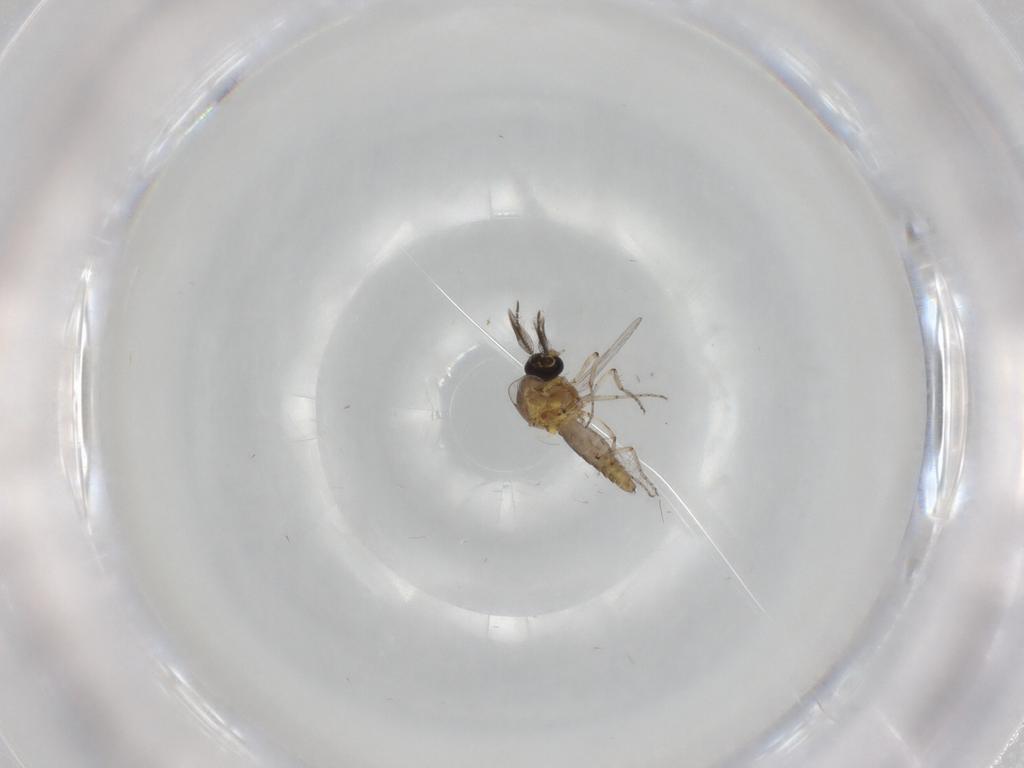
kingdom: Animalia
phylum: Arthropoda
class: Insecta
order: Diptera
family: Ceratopogonidae
